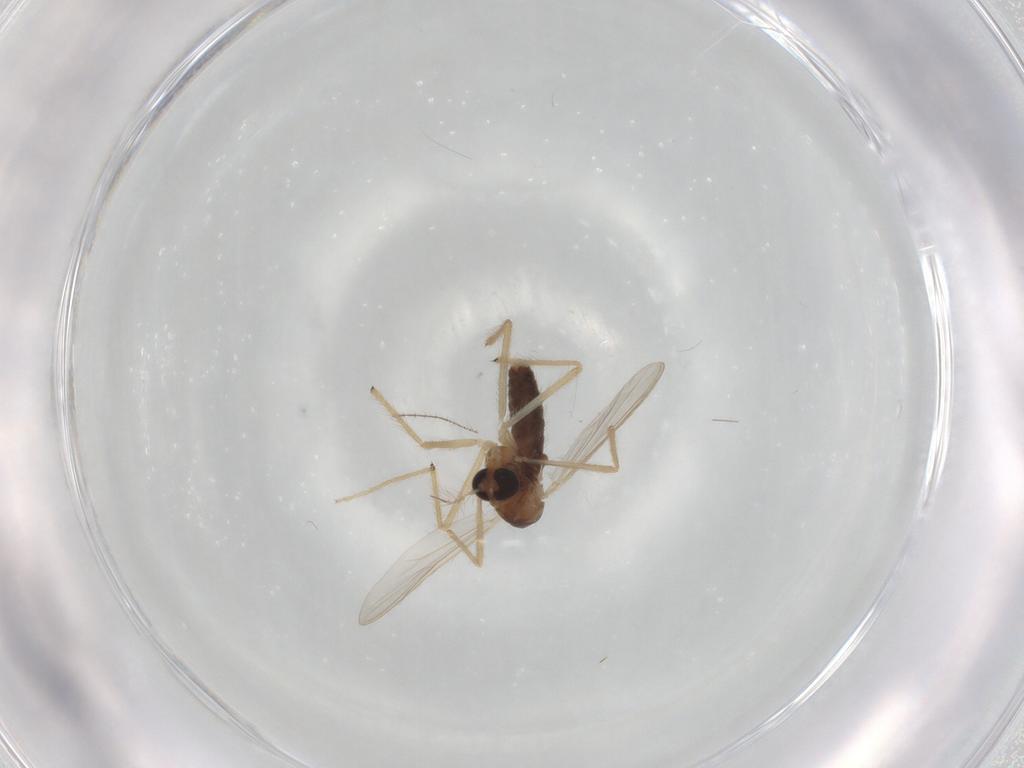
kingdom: Animalia
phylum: Arthropoda
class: Insecta
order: Diptera
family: Chironomidae
